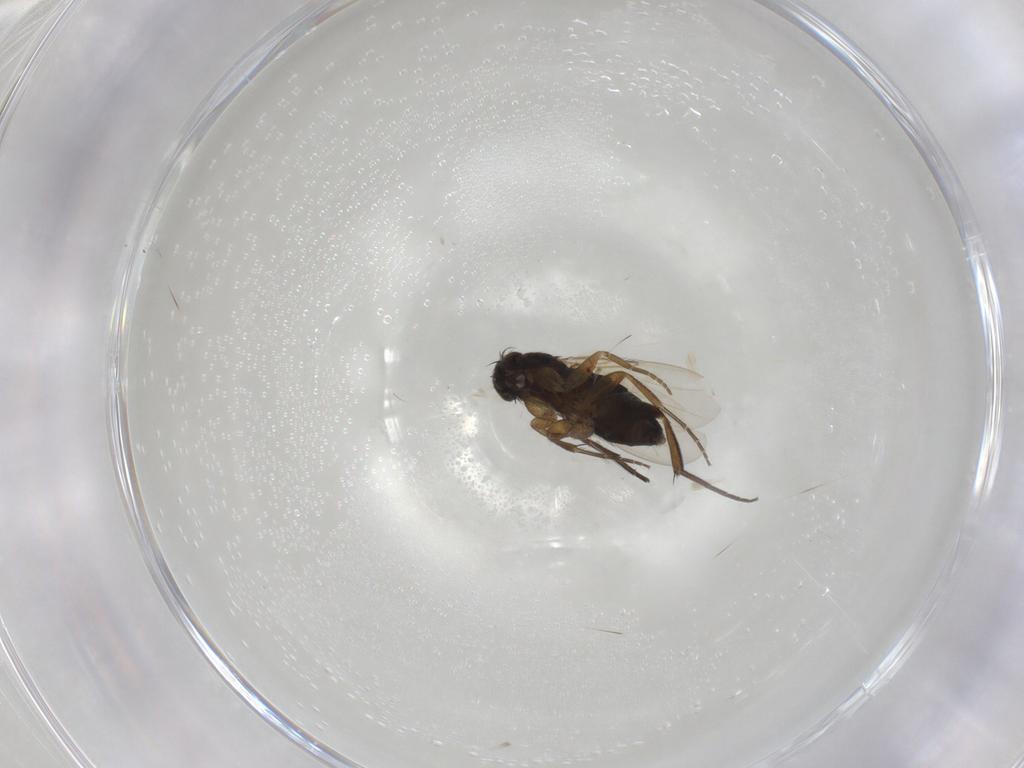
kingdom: Animalia
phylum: Arthropoda
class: Insecta
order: Diptera
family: Phoridae
